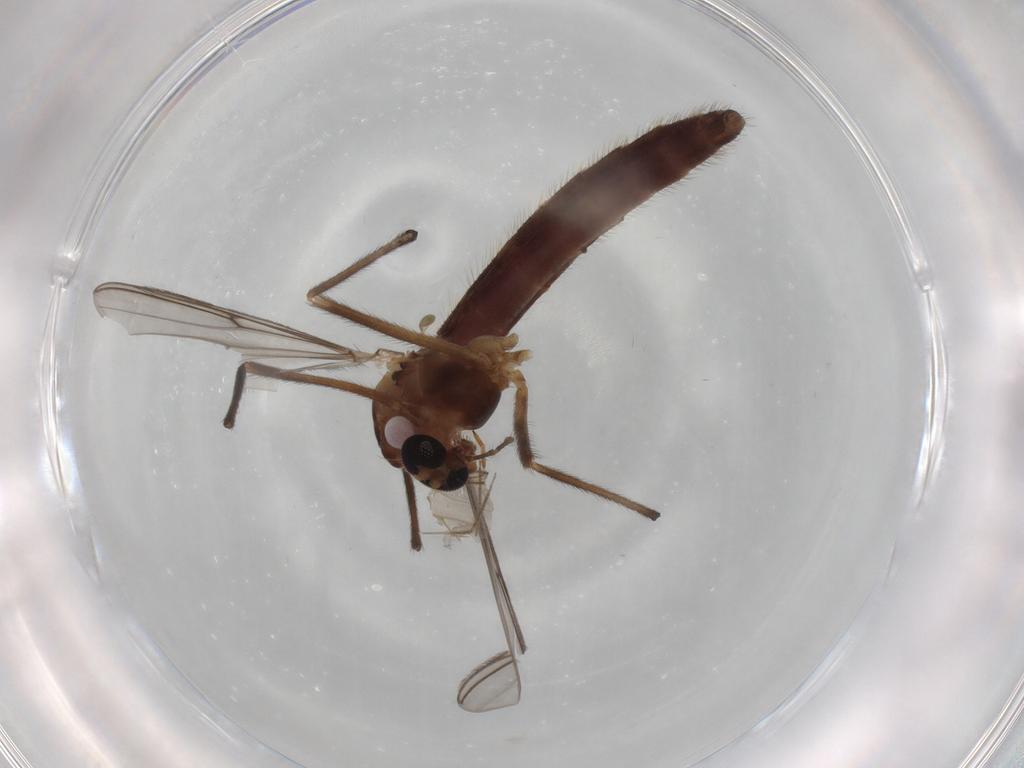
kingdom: Animalia
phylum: Arthropoda
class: Insecta
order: Diptera
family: Chironomidae
